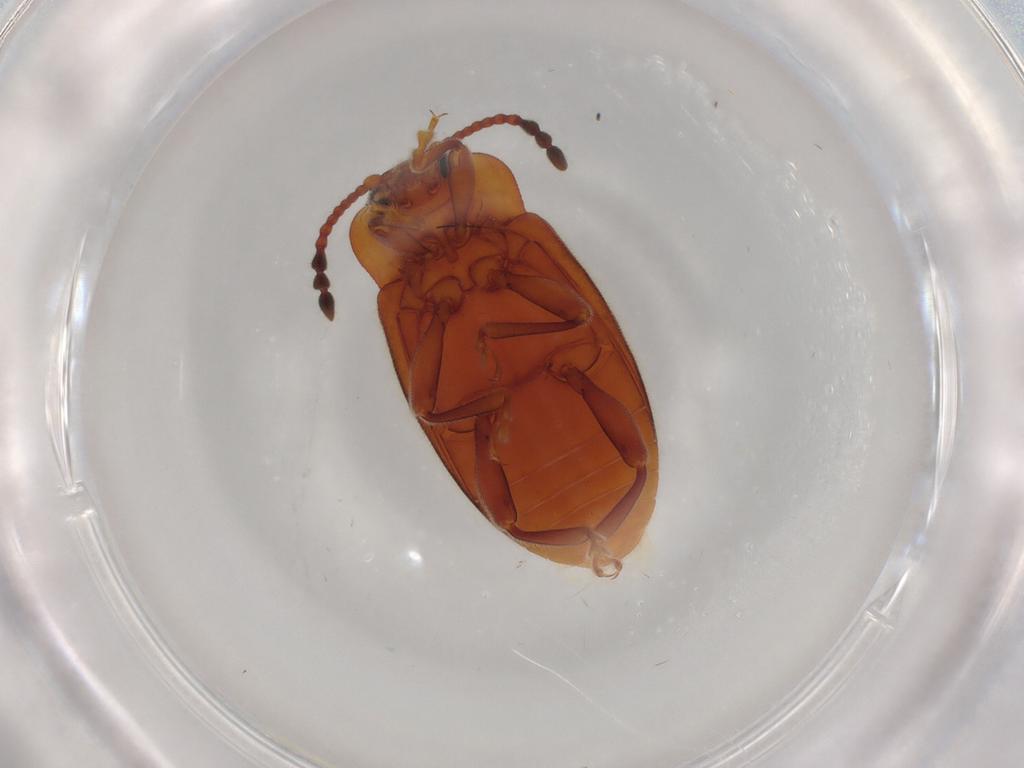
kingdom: Animalia
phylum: Arthropoda
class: Insecta
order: Coleoptera
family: Endomychidae
